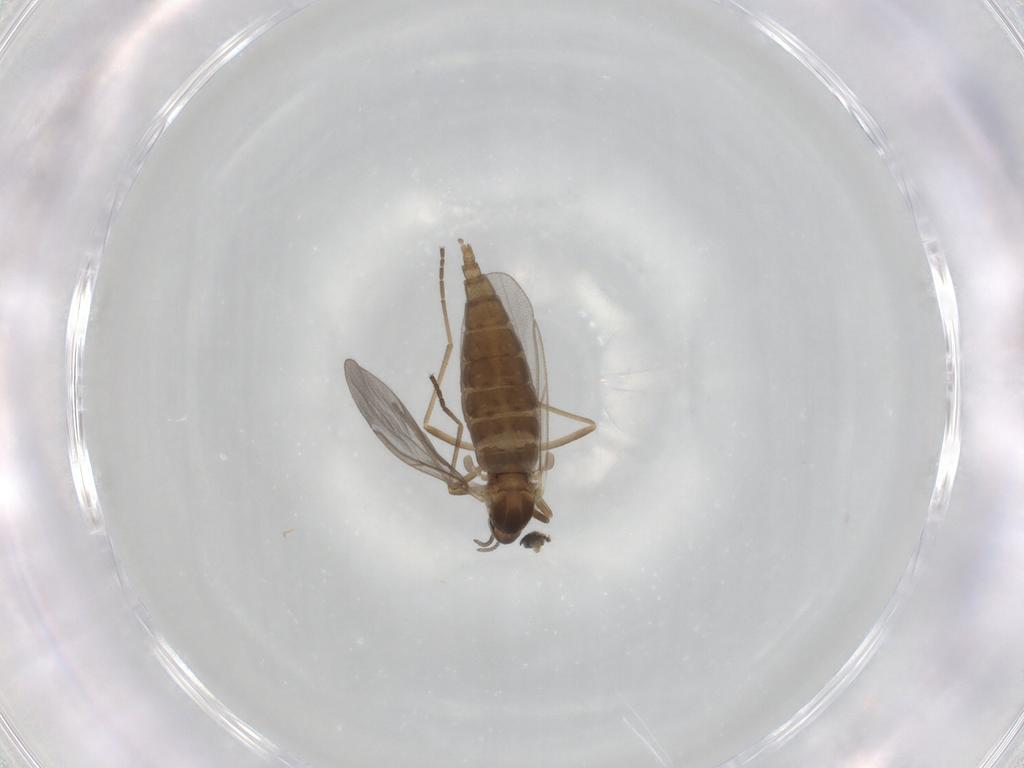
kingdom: Animalia
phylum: Arthropoda
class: Insecta
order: Diptera
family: Cecidomyiidae
